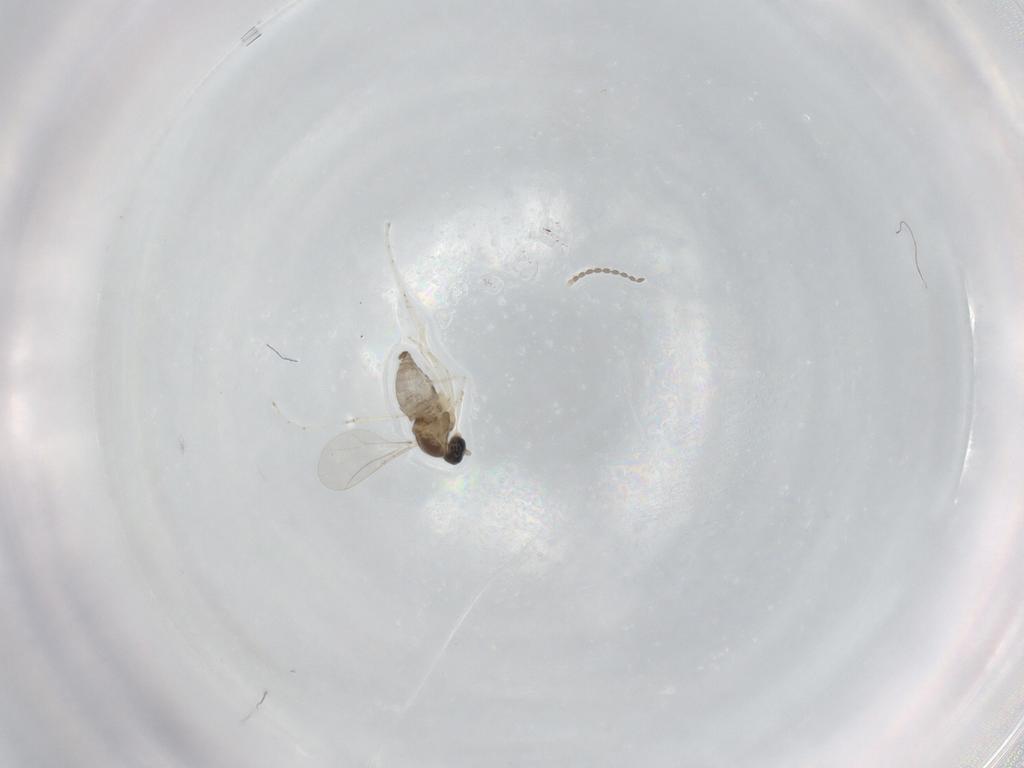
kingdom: Animalia
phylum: Arthropoda
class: Insecta
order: Diptera
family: Cecidomyiidae
